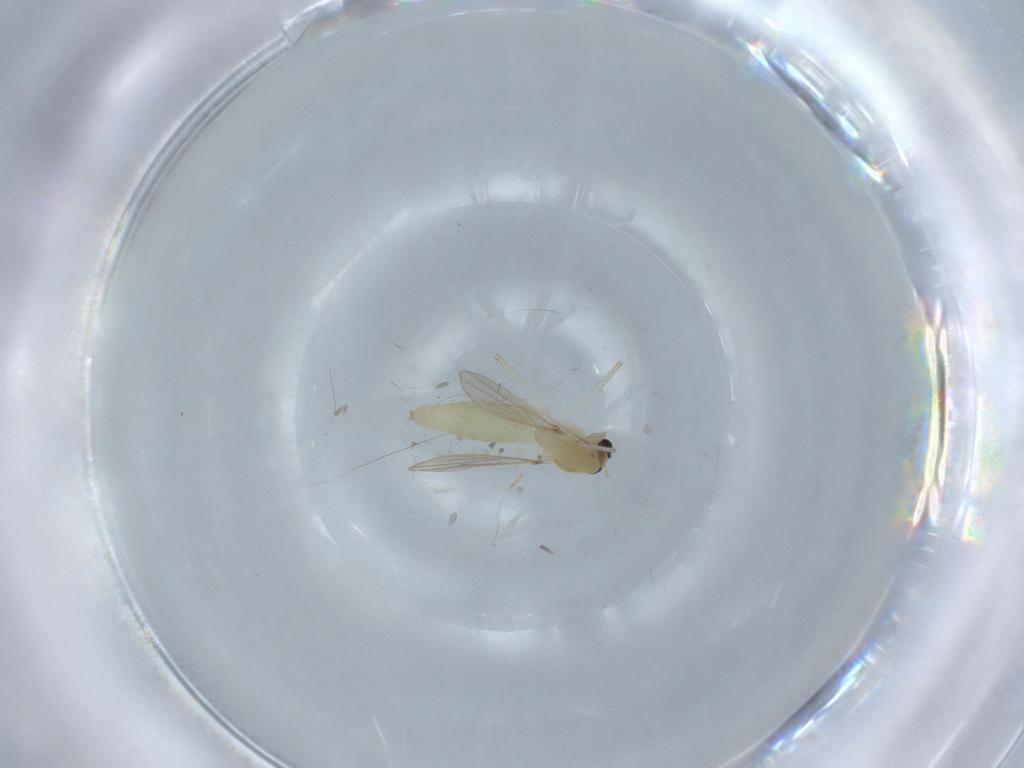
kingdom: Animalia
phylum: Arthropoda
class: Insecta
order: Diptera
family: Chironomidae
